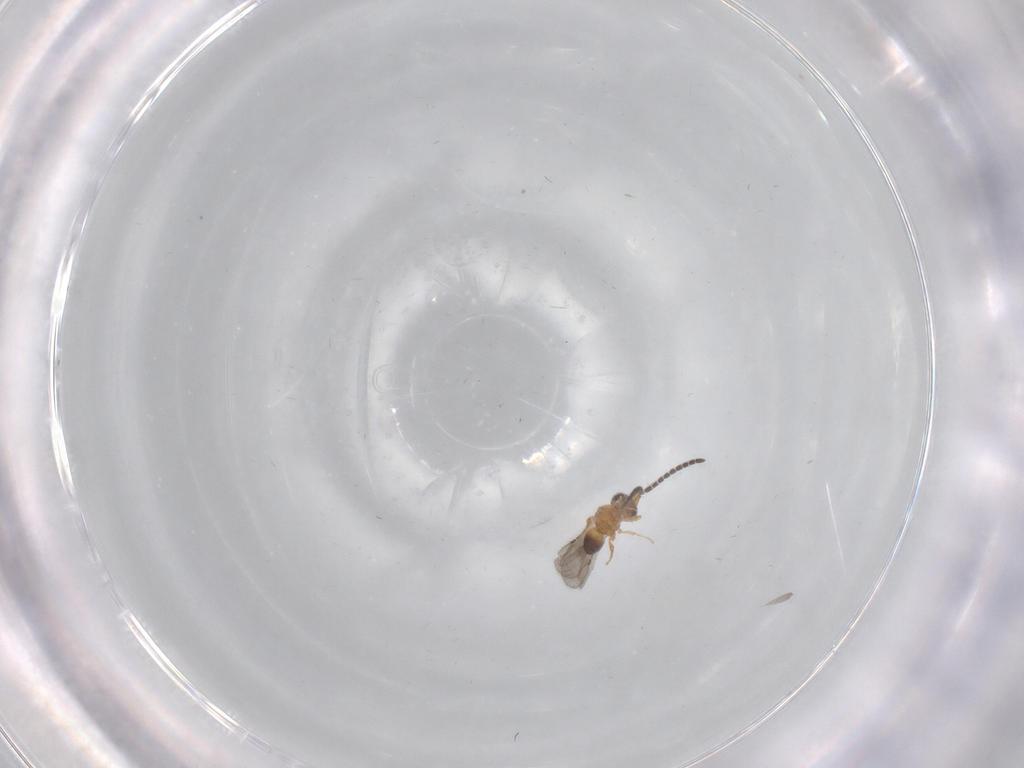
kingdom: Animalia
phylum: Arthropoda
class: Insecta
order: Hymenoptera
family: Ceraphronidae
